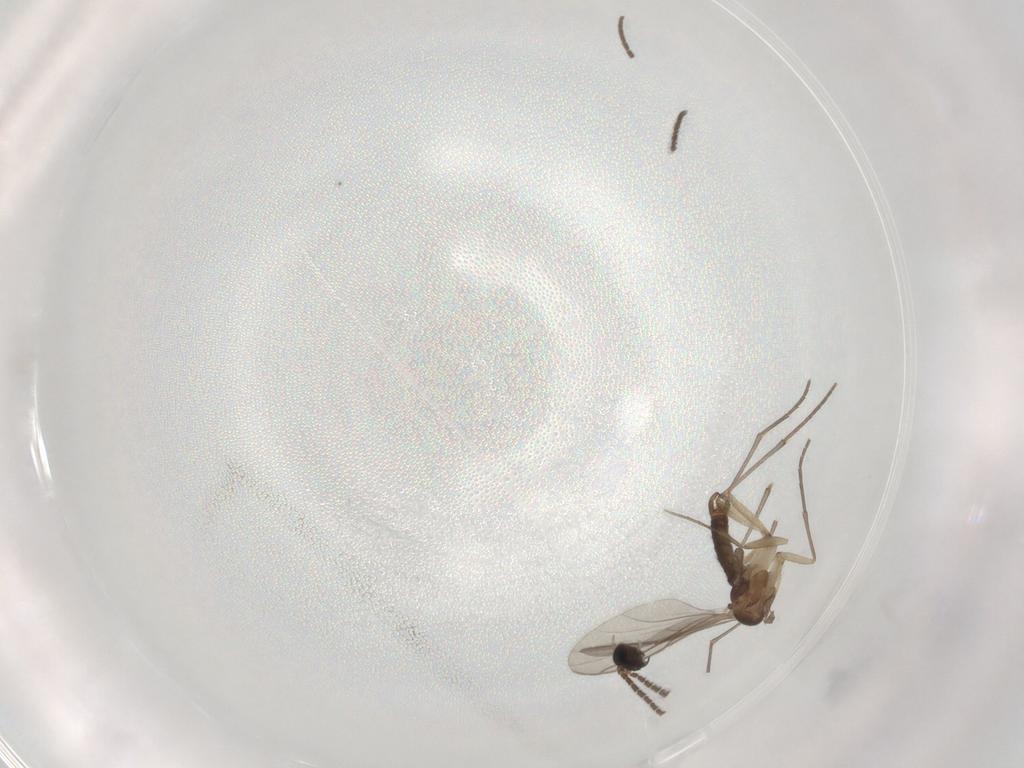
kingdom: Animalia
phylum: Arthropoda
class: Insecta
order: Diptera
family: Phoridae
